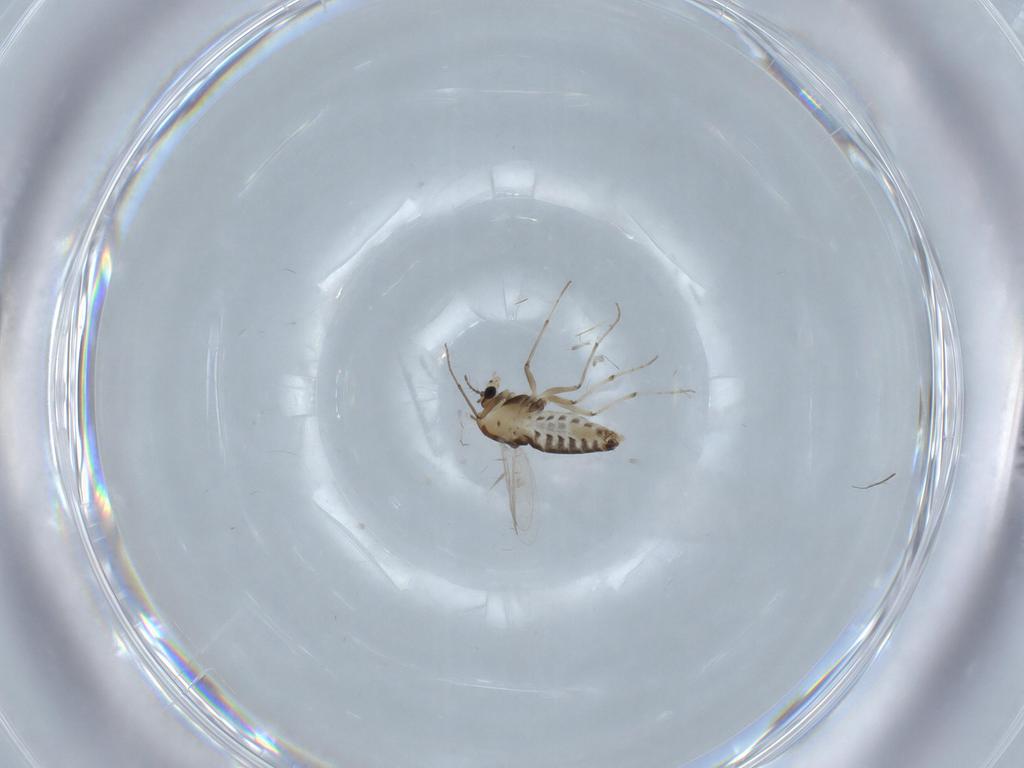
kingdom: Animalia
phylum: Arthropoda
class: Insecta
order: Diptera
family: Chironomidae
